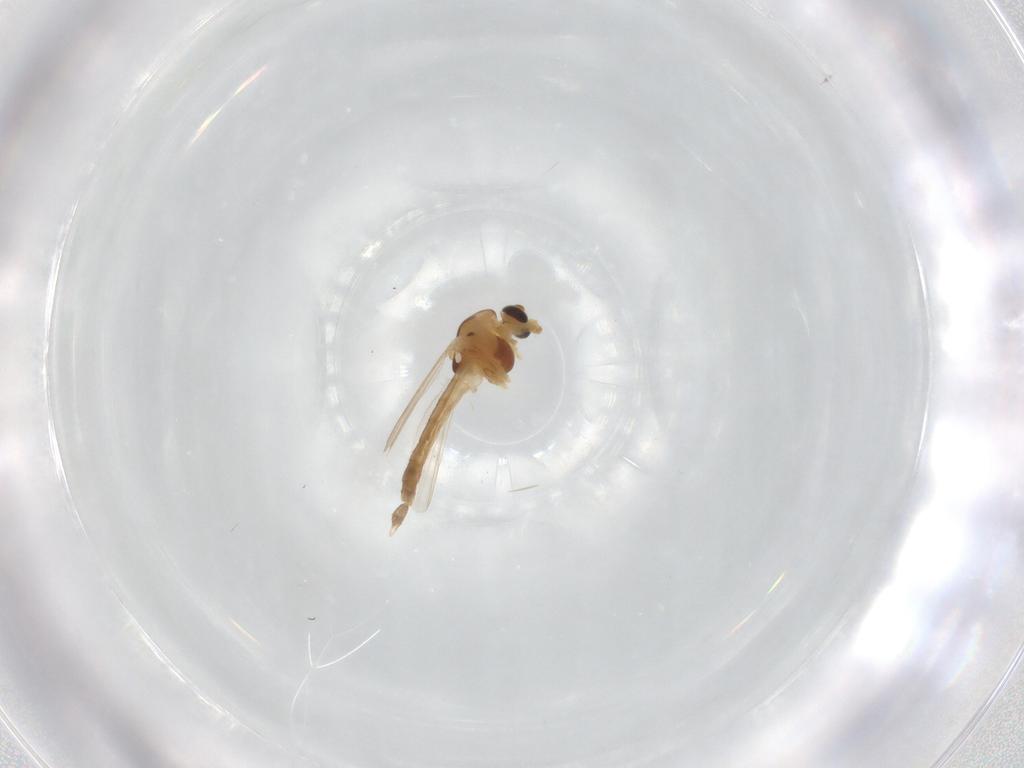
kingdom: Animalia
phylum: Arthropoda
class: Insecta
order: Diptera
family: Chironomidae
